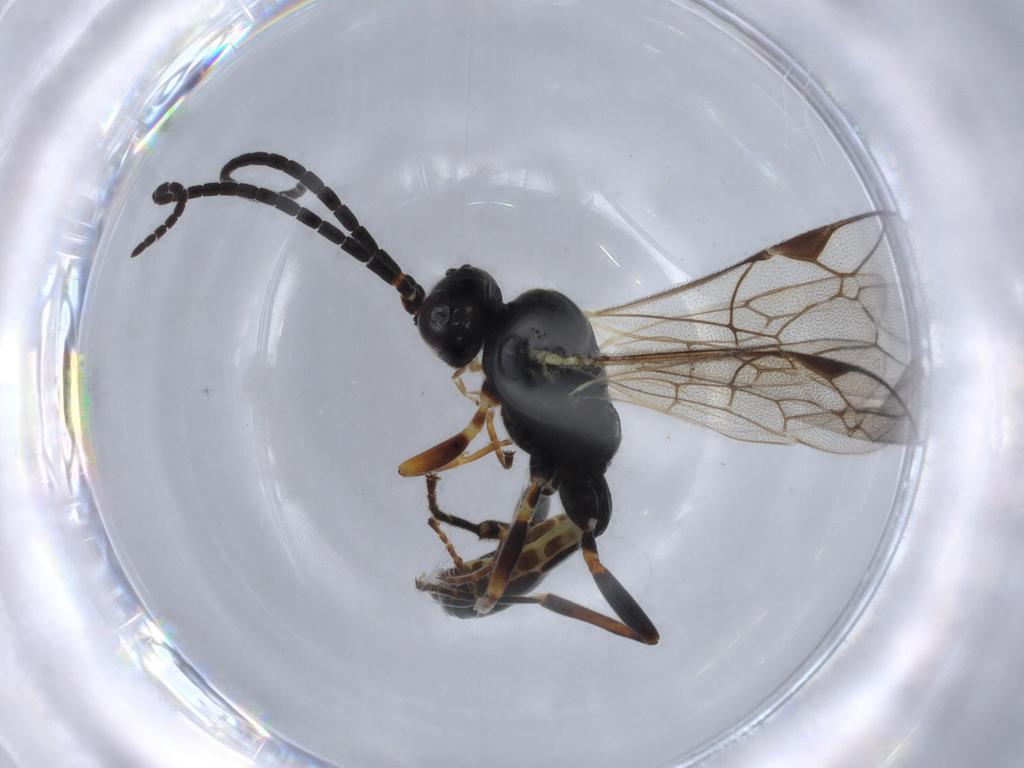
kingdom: Animalia
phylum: Arthropoda
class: Insecta
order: Hymenoptera
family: Ichneumonidae
